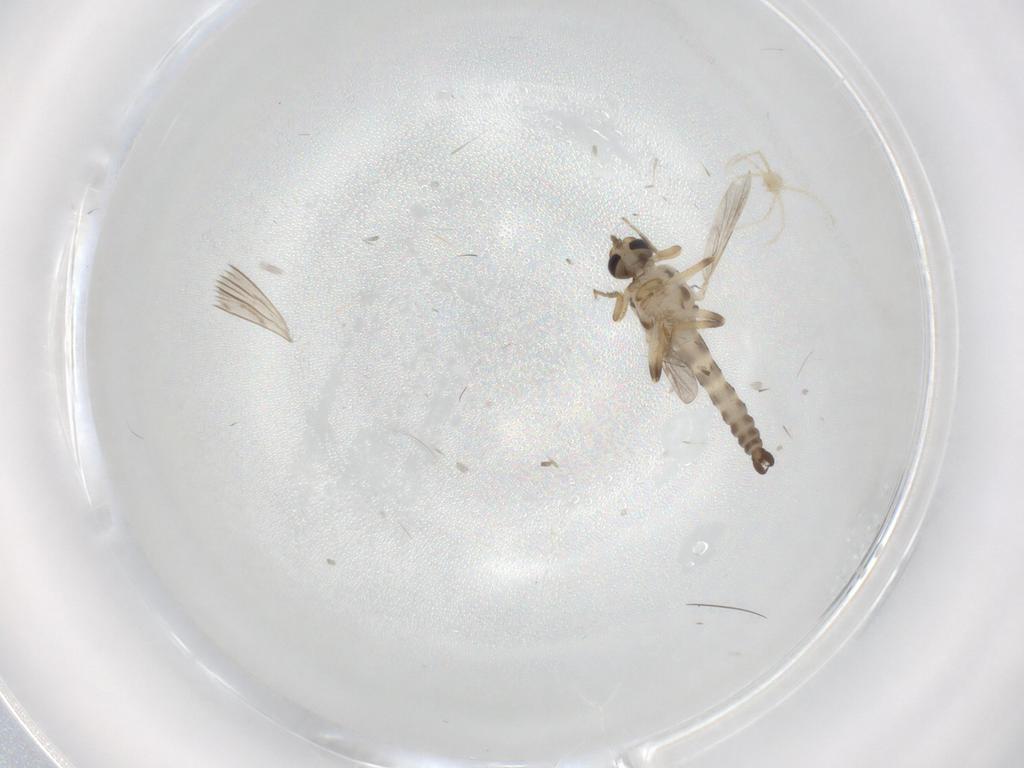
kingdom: Animalia
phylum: Arthropoda
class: Insecta
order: Diptera
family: Ceratopogonidae
